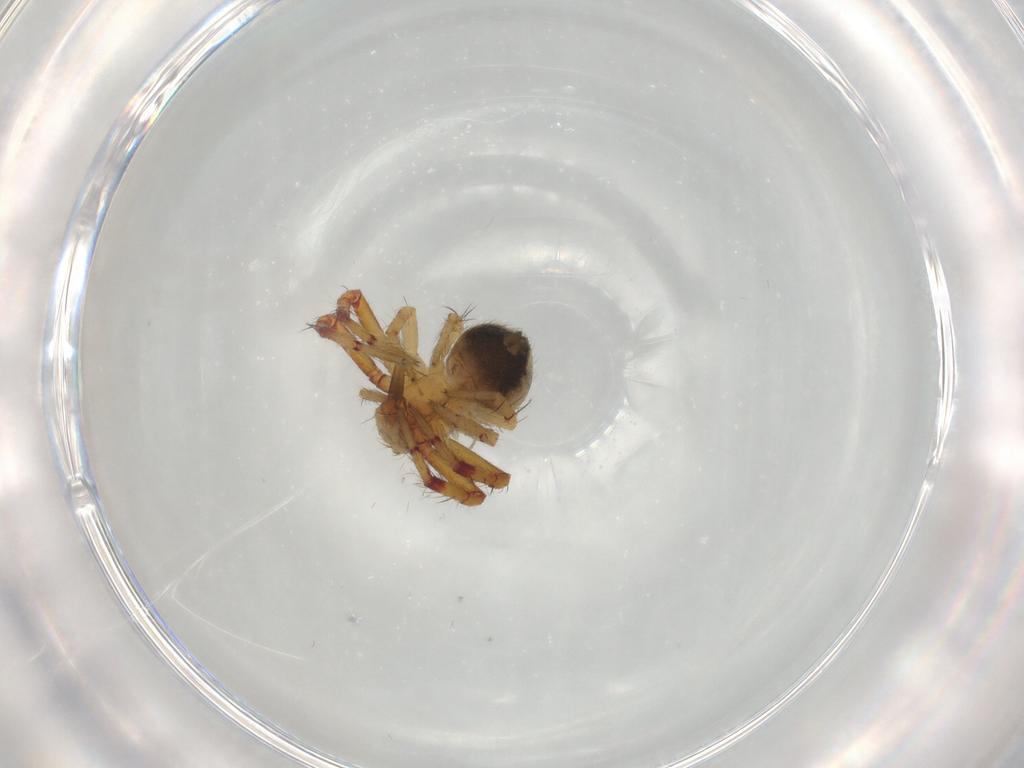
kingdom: Animalia
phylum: Arthropoda
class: Arachnida
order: Araneae
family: Thomisidae
